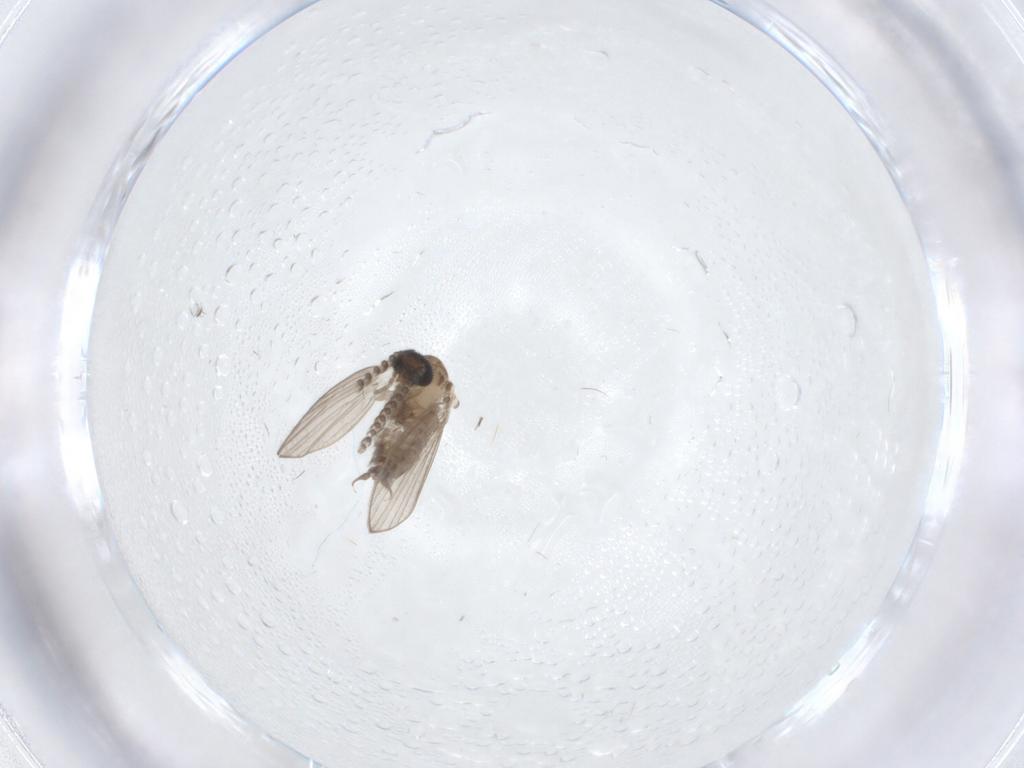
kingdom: Animalia
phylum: Arthropoda
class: Insecta
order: Diptera
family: Psychodidae
